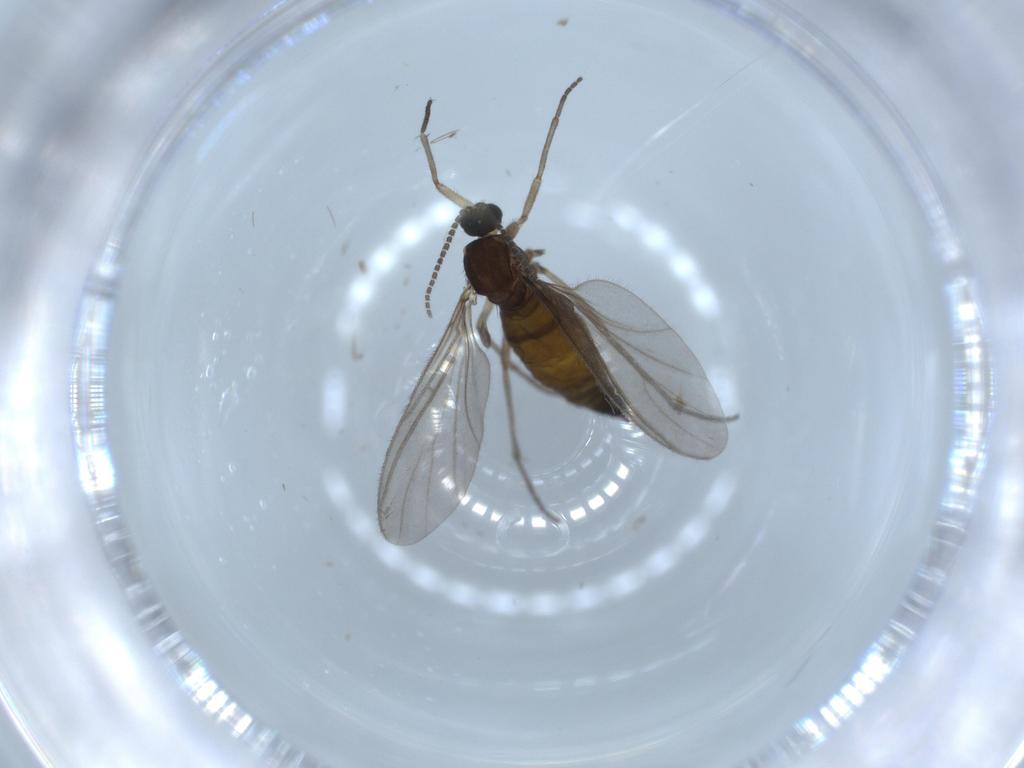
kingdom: Animalia
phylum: Arthropoda
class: Insecta
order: Diptera
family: Sciaridae
